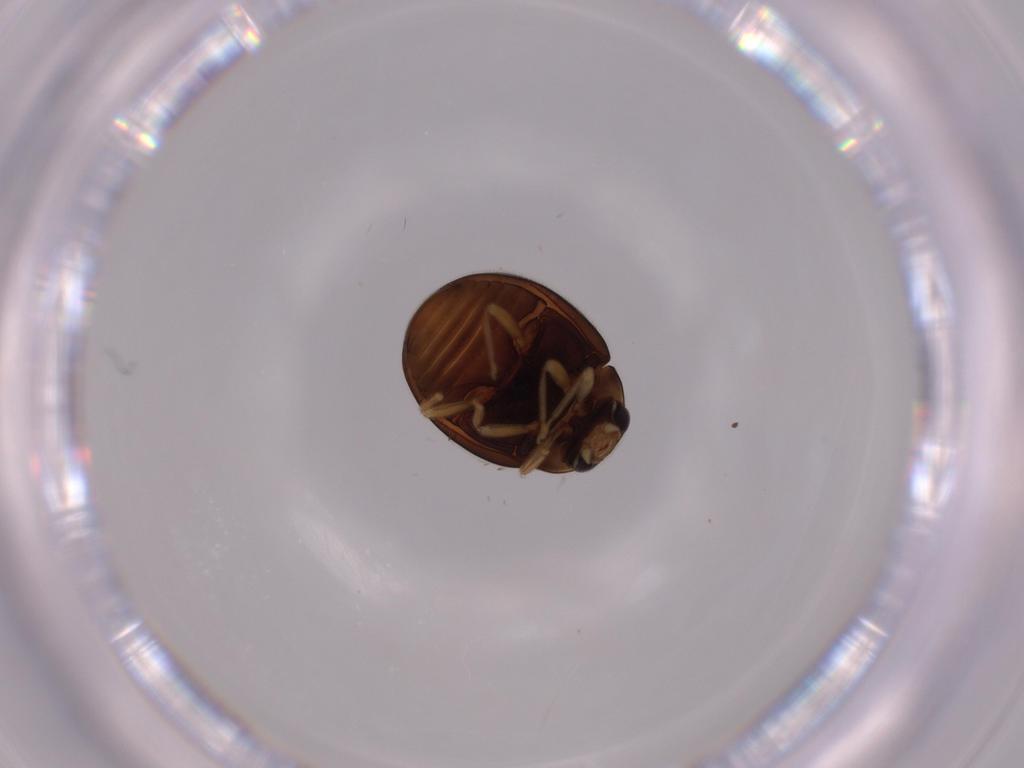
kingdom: Animalia
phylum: Arthropoda
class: Insecta
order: Coleoptera
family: Coccinellidae
